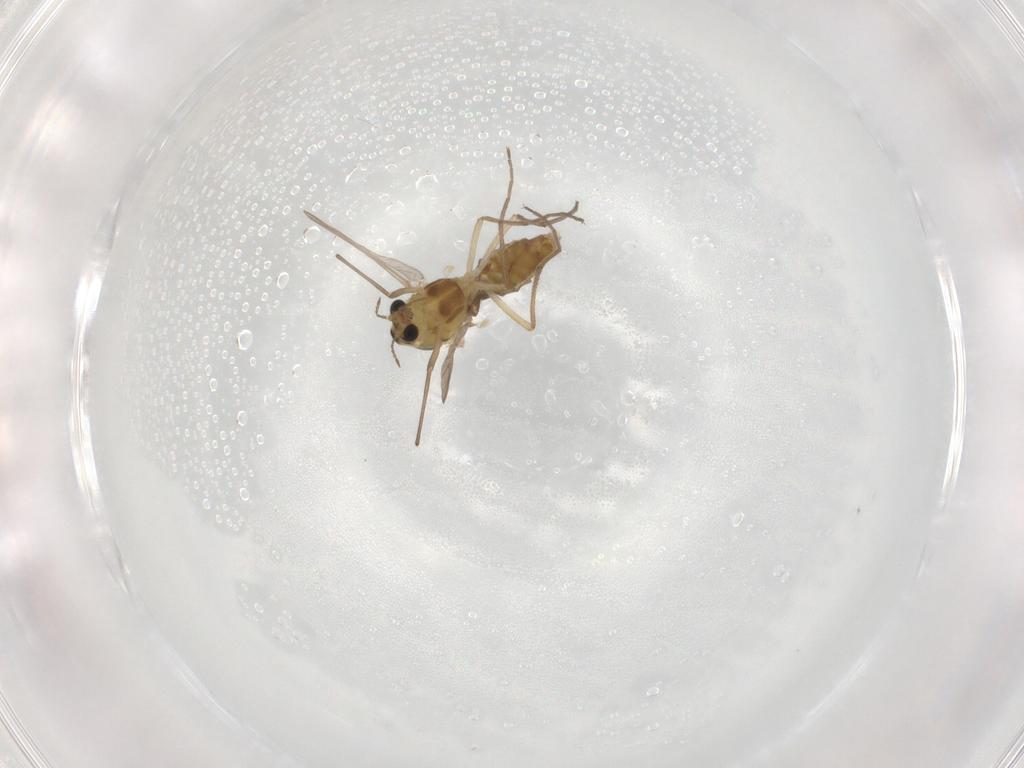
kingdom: Animalia
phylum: Arthropoda
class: Insecta
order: Diptera
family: Chironomidae
